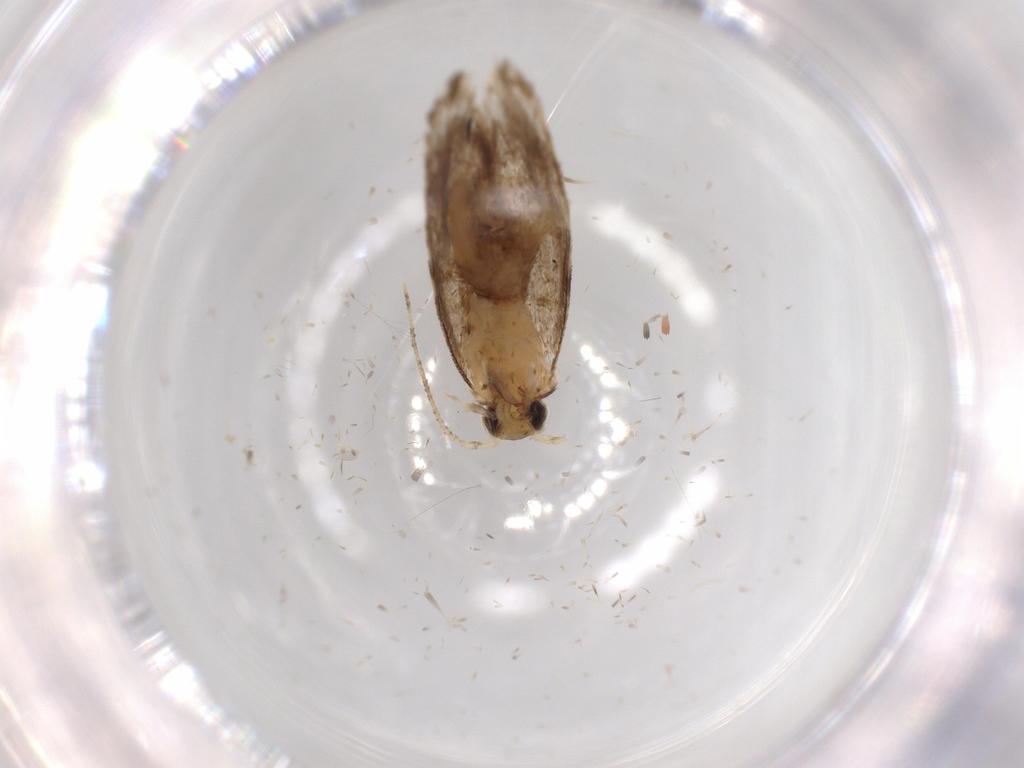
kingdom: Animalia
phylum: Arthropoda
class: Insecta
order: Lepidoptera
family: Tineidae
